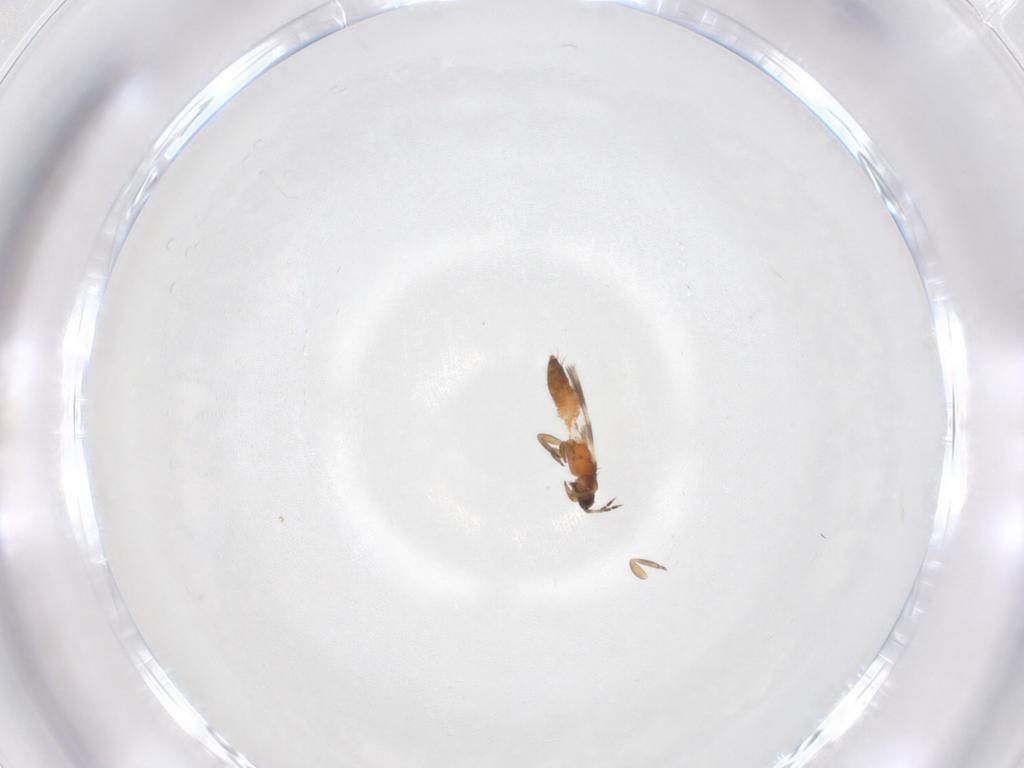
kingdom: Animalia
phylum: Arthropoda
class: Insecta
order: Thysanoptera
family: Aeolothripidae
